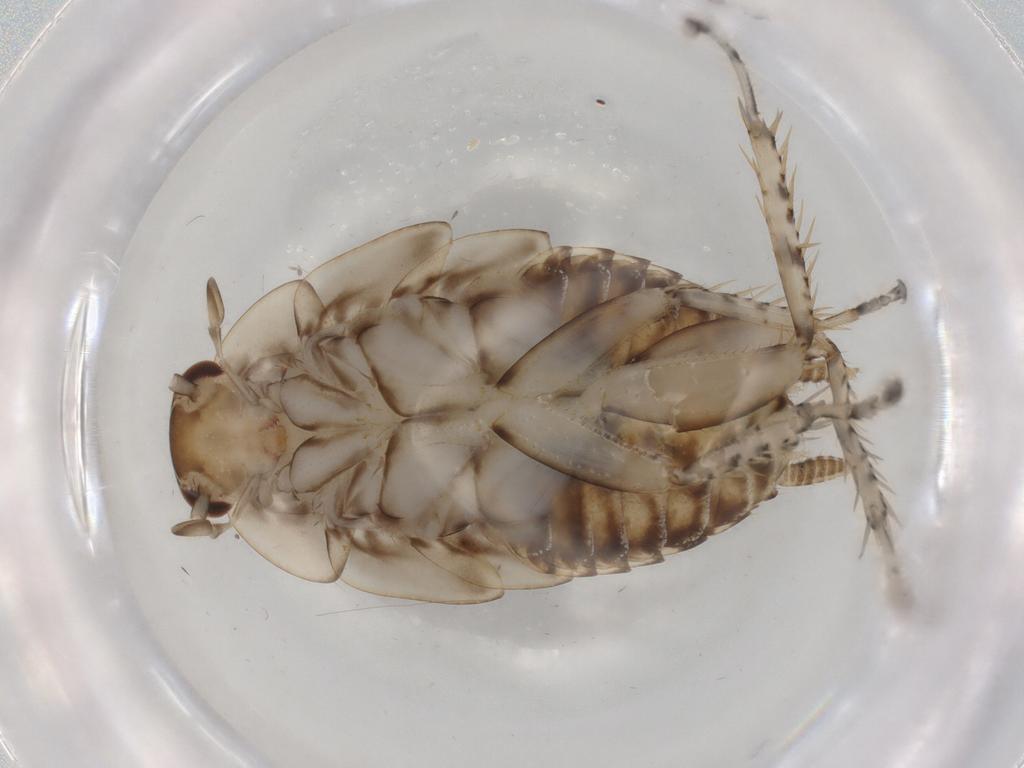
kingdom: Animalia
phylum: Arthropoda
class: Insecta
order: Blattodea
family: Ectobiidae
